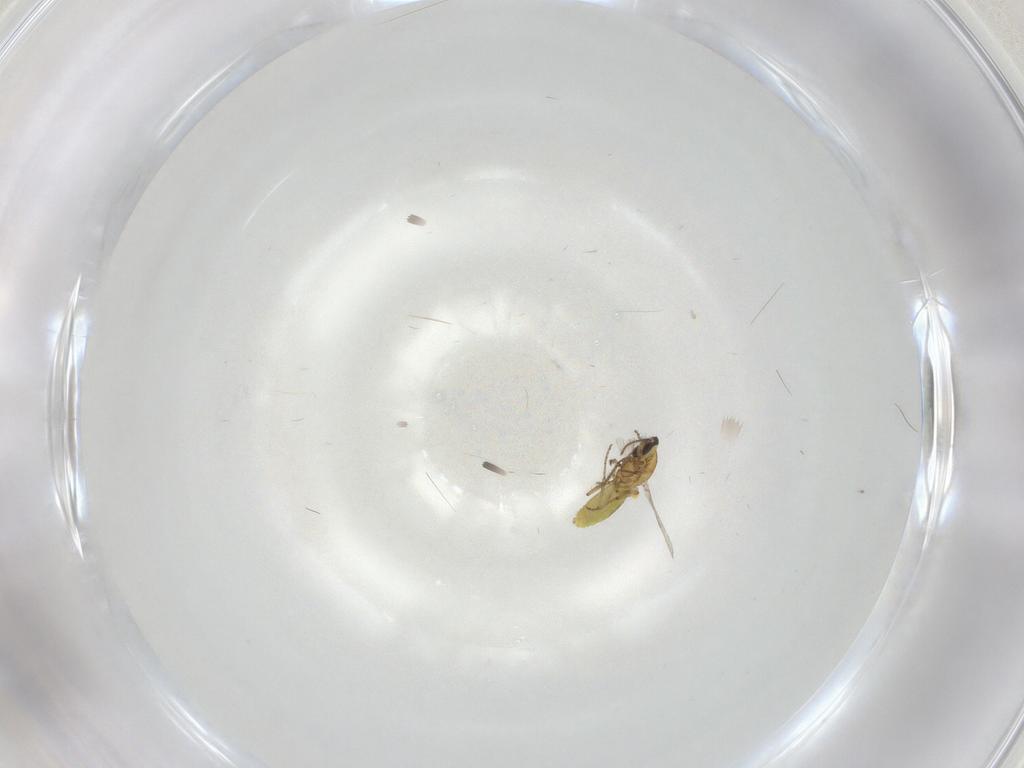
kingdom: Animalia
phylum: Arthropoda
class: Insecta
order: Diptera
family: Ceratopogonidae
